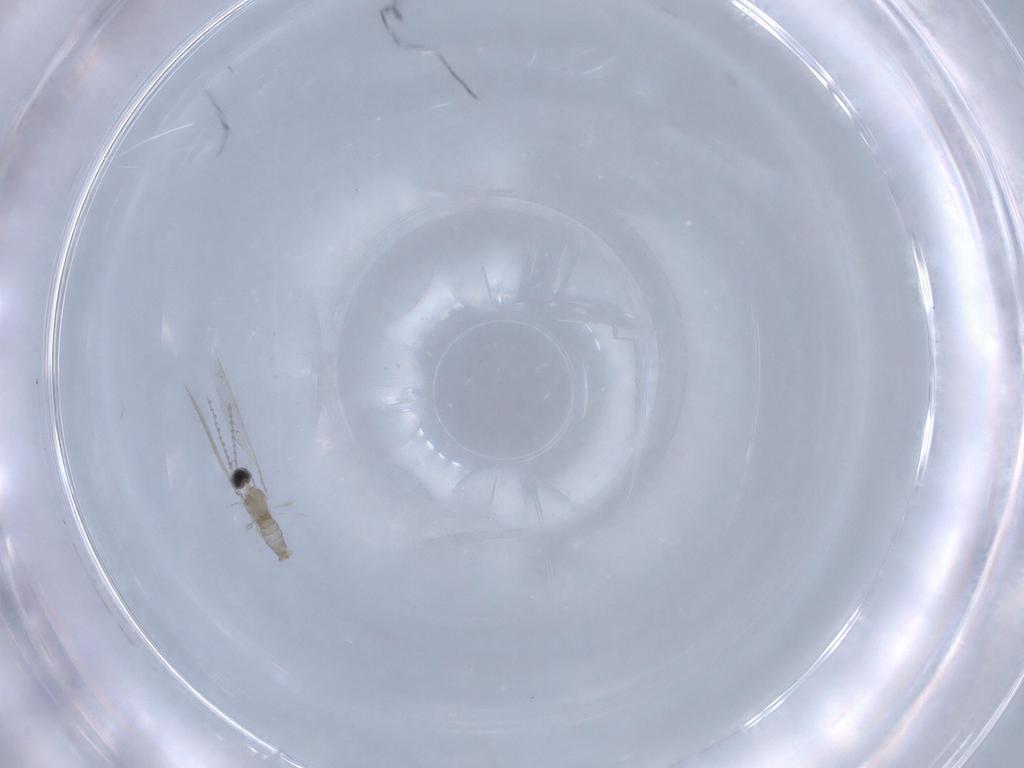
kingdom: Animalia
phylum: Arthropoda
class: Insecta
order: Diptera
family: Cecidomyiidae
